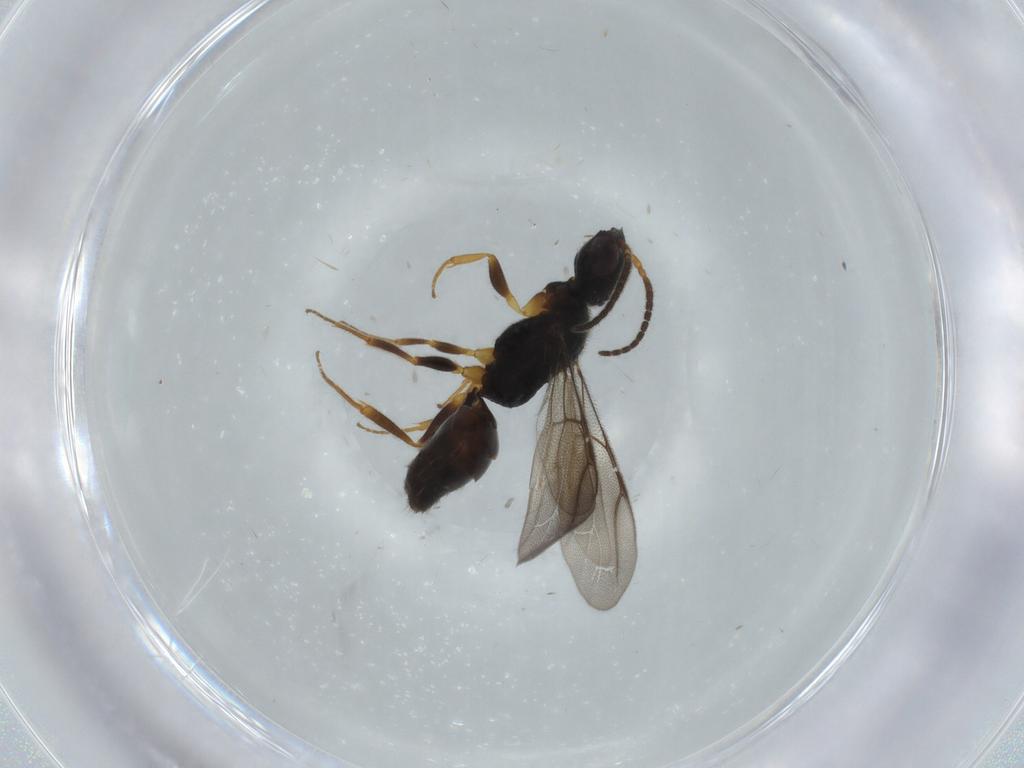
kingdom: Animalia
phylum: Arthropoda
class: Insecta
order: Hymenoptera
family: Bethylidae
